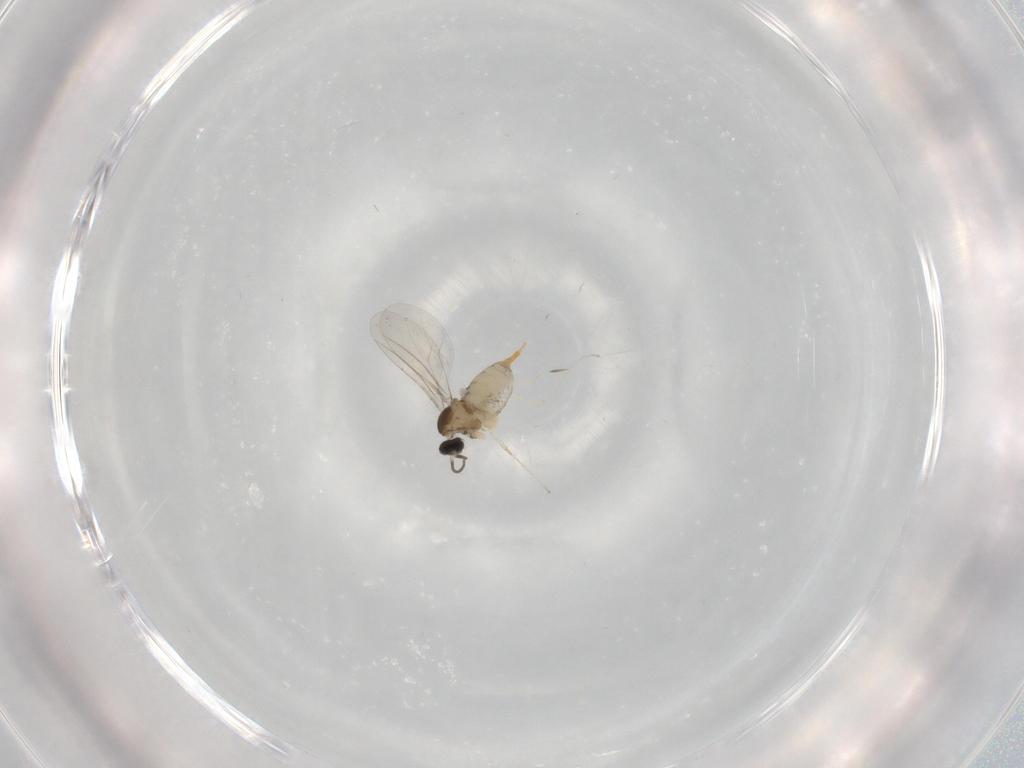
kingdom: Animalia
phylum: Arthropoda
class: Insecta
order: Diptera
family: Cecidomyiidae
